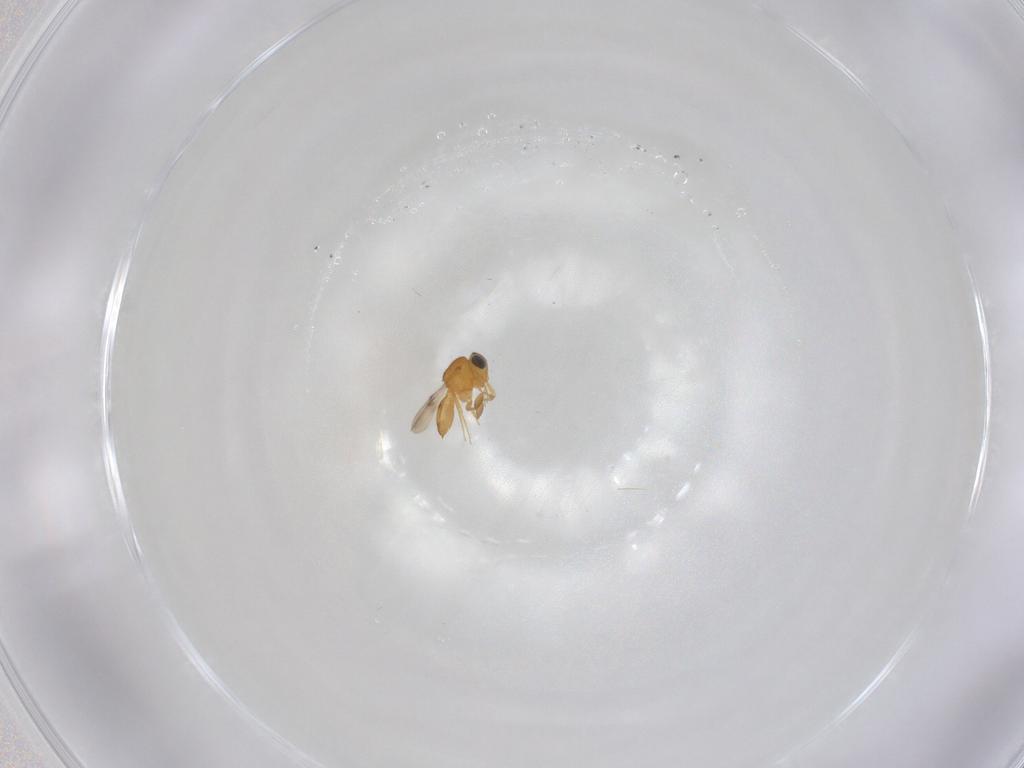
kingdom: Animalia
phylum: Arthropoda
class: Insecta
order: Hymenoptera
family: Scelionidae
